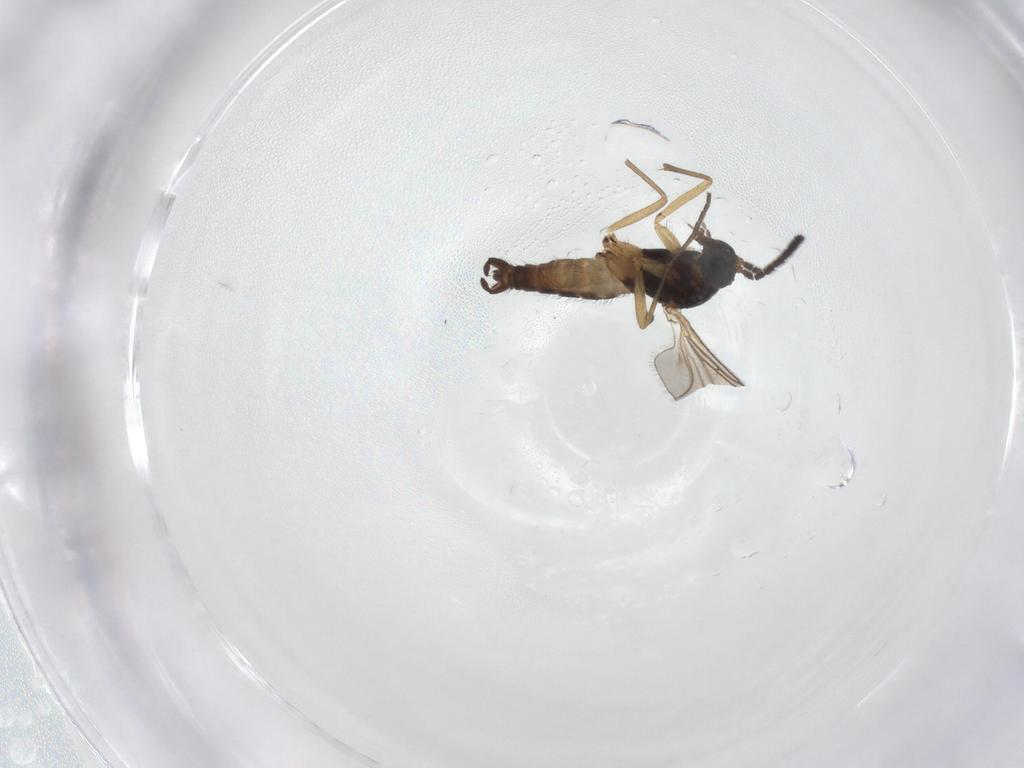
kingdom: Animalia
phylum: Arthropoda
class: Insecta
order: Diptera
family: Sciaridae
